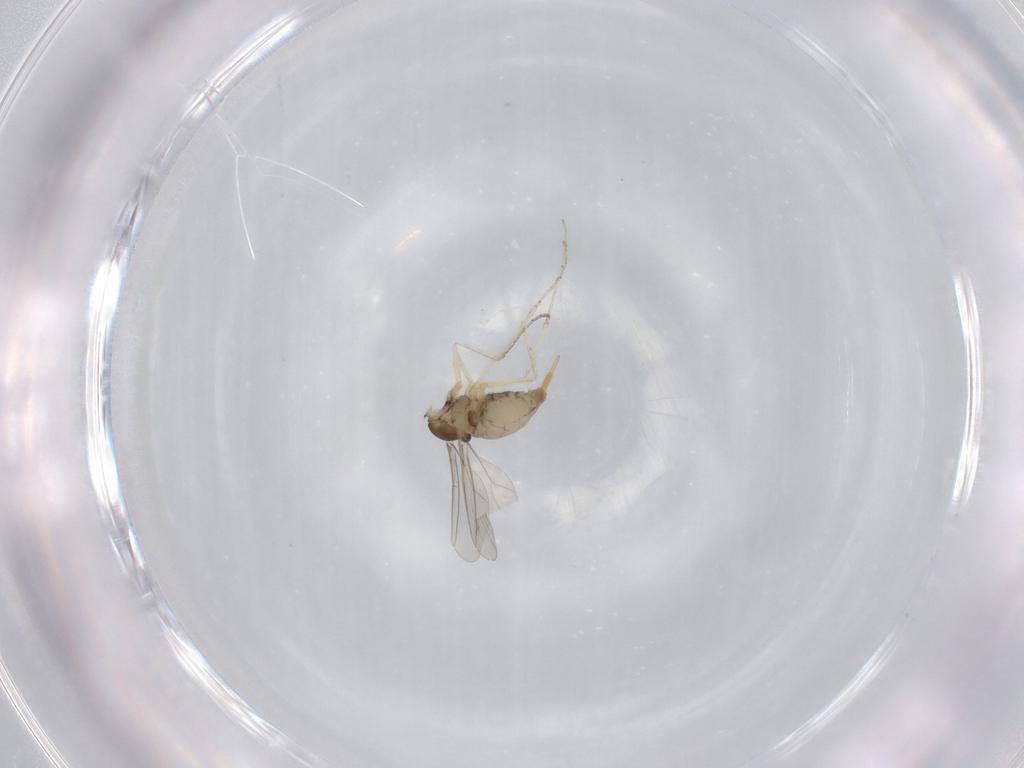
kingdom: Animalia
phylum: Arthropoda
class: Insecta
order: Diptera
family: Cecidomyiidae
